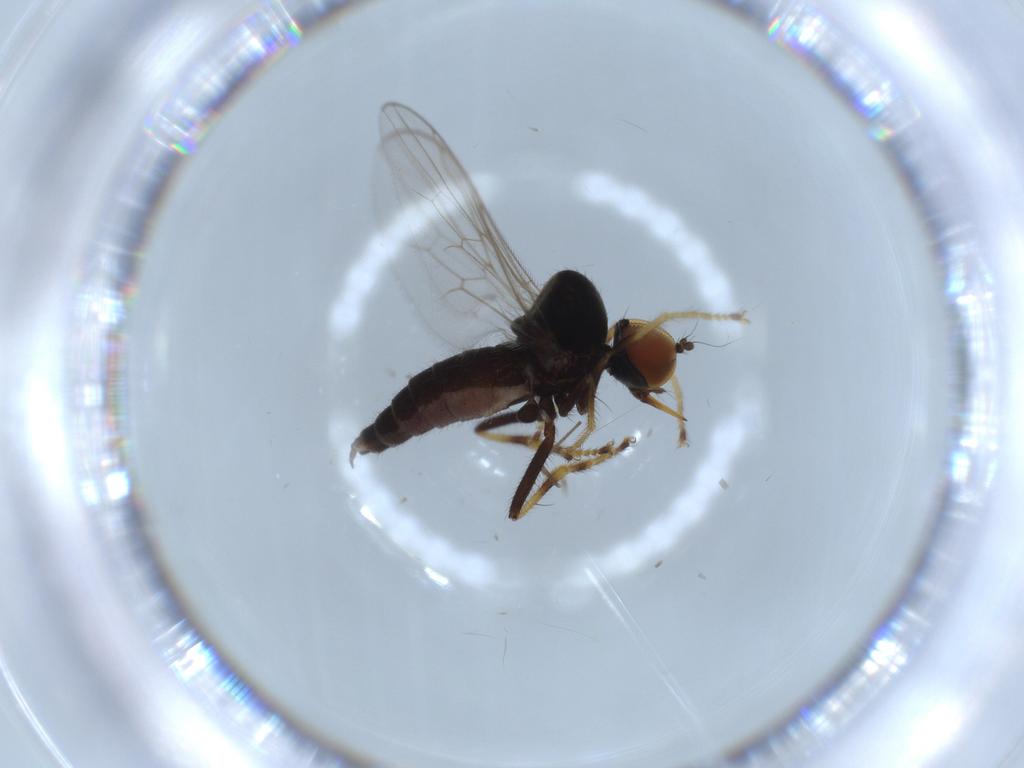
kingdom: Animalia
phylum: Arthropoda
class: Insecta
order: Diptera
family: Hybotidae
